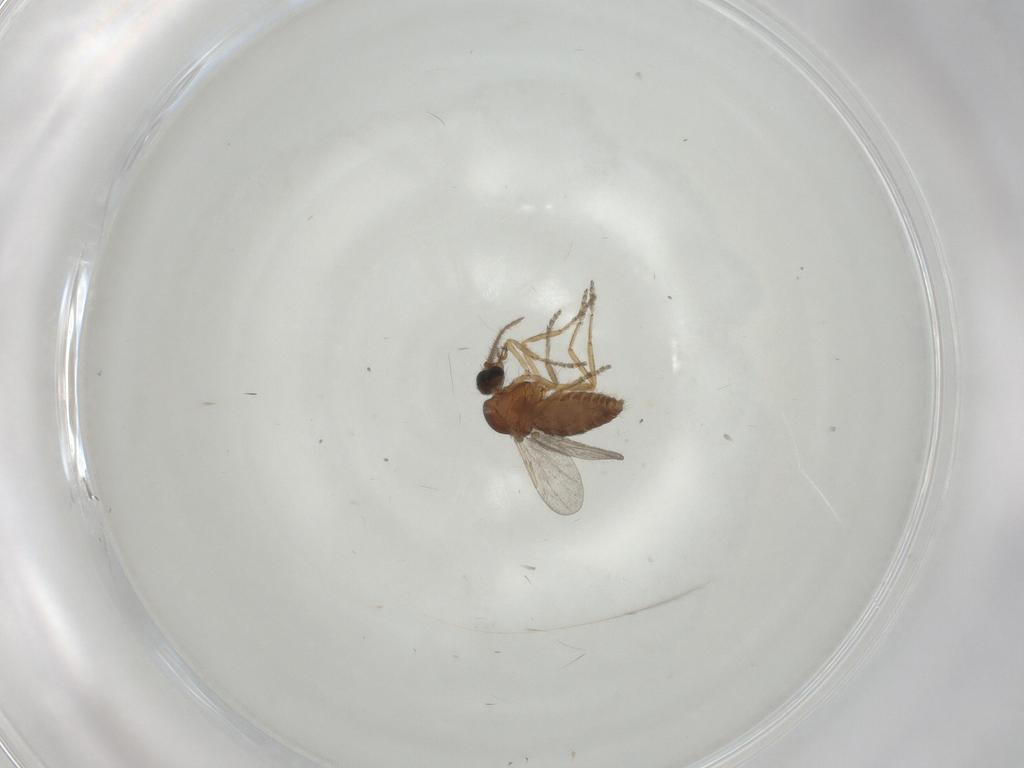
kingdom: Animalia
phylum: Arthropoda
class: Insecta
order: Diptera
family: Ceratopogonidae
